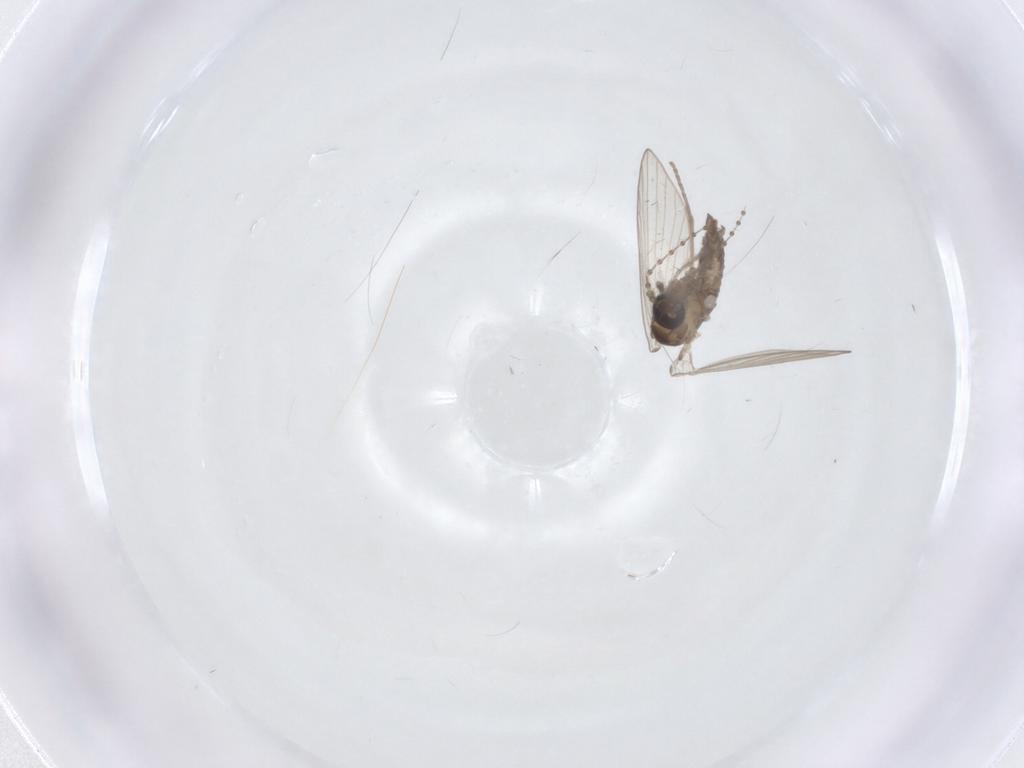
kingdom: Animalia
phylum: Arthropoda
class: Insecta
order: Diptera
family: Psychodidae
